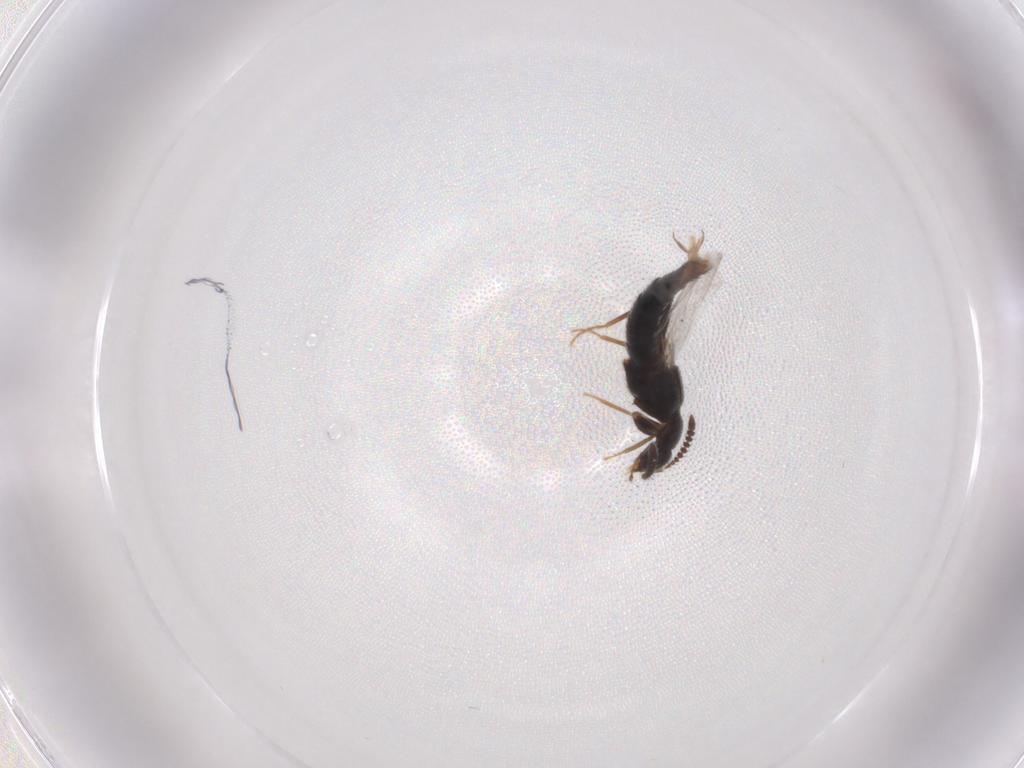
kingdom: Animalia
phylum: Arthropoda
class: Insecta
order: Coleoptera
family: Staphylinidae
